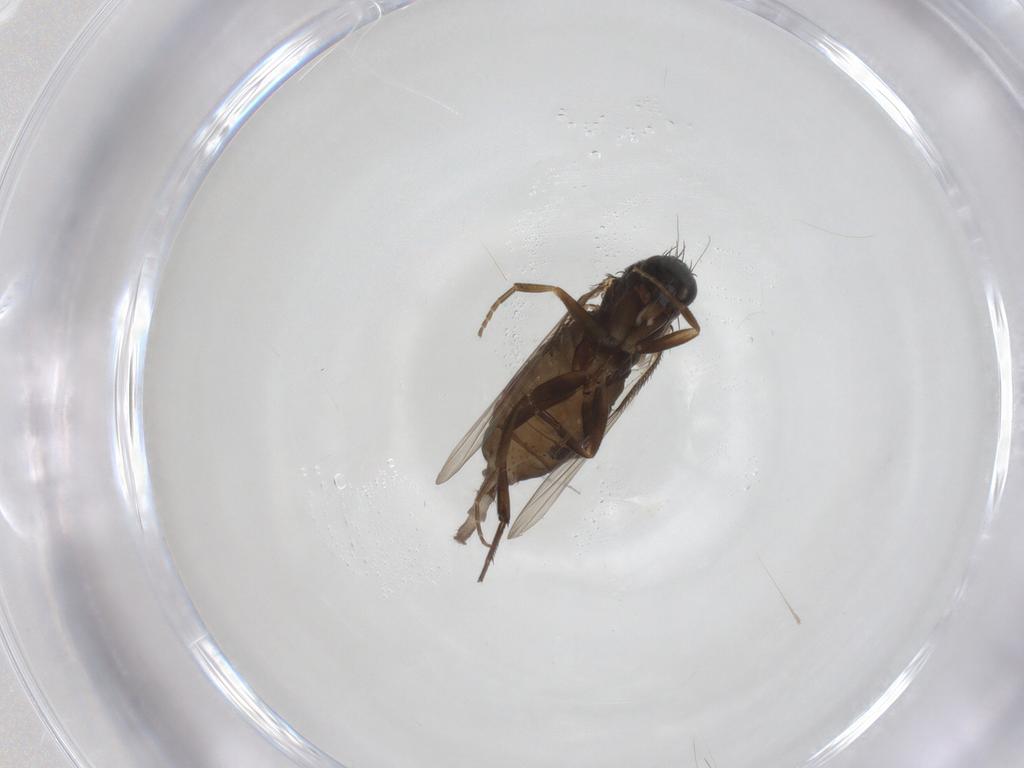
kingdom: Animalia
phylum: Arthropoda
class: Insecta
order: Diptera
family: Phoridae
